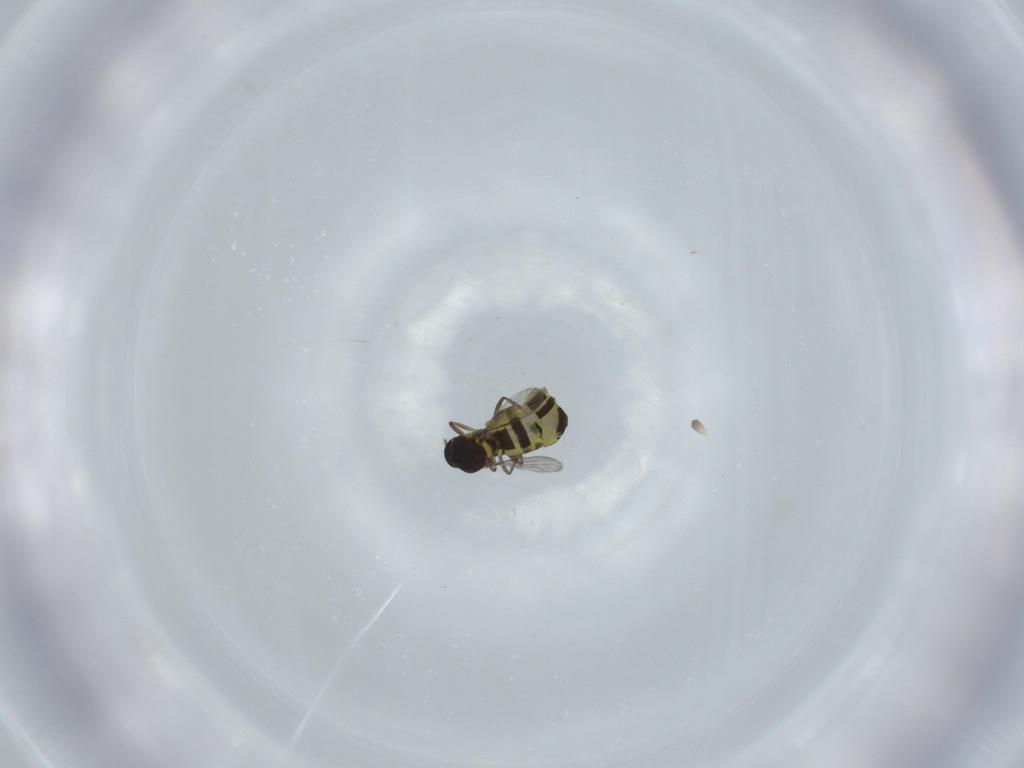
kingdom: Animalia
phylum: Arthropoda
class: Insecta
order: Diptera
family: Ceratopogonidae
